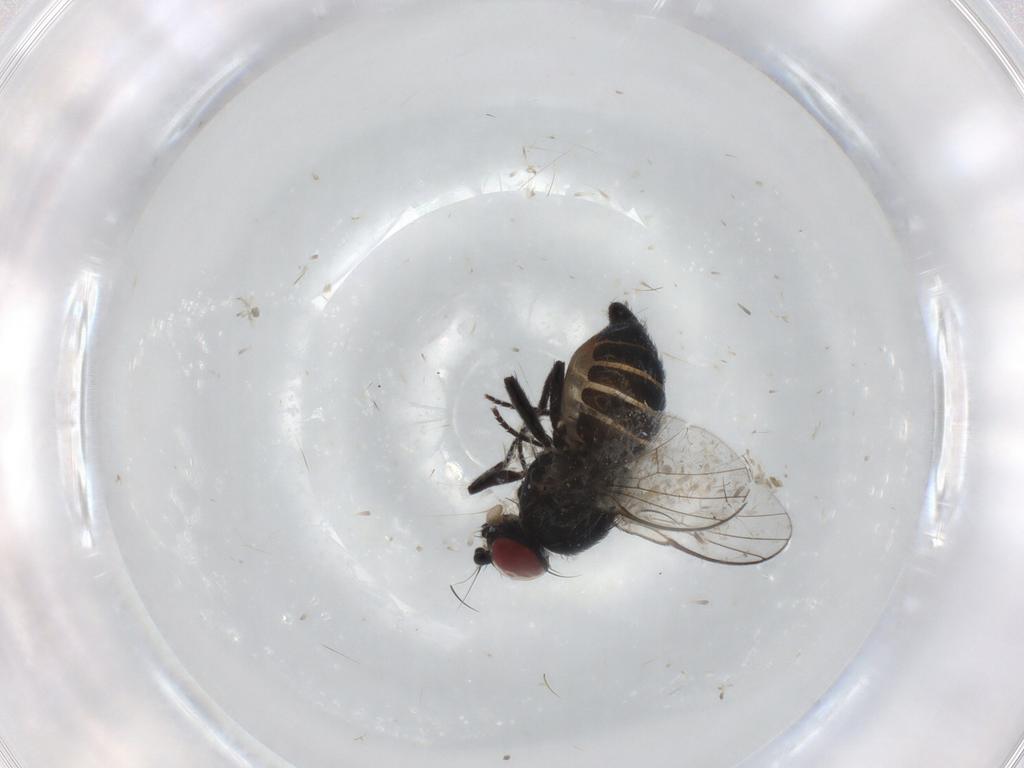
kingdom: Animalia
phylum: Arthropoda
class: Insecta
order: Diptera
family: Agromyzidae
